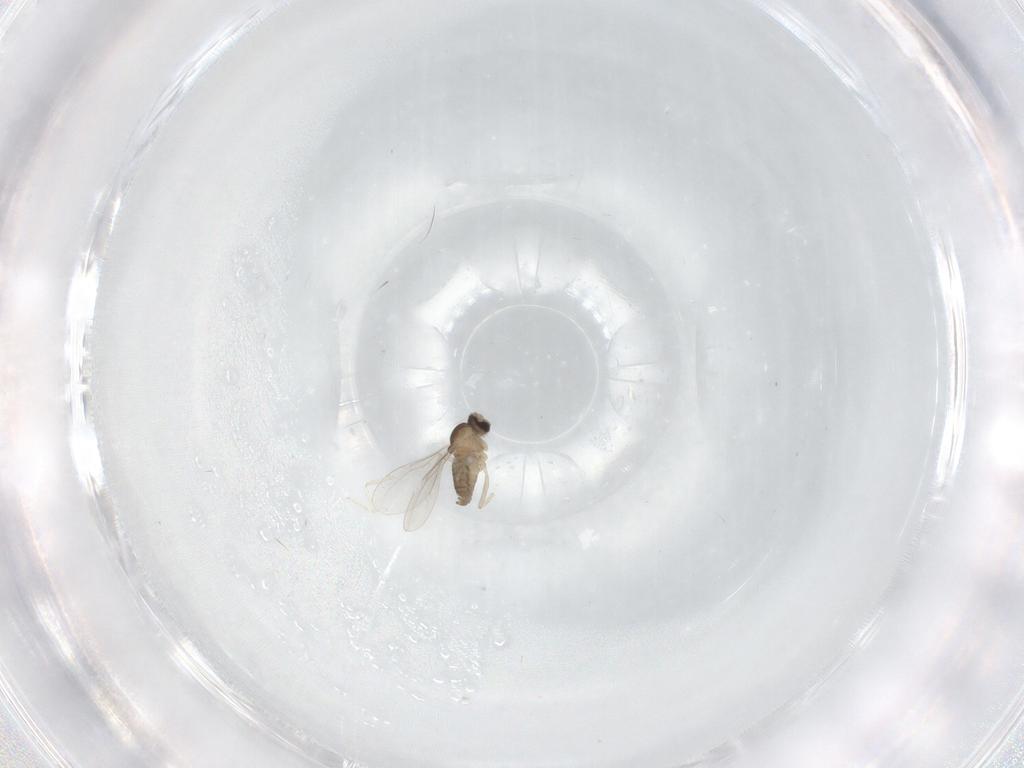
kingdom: Animalia
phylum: Arthropoda
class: Insecta
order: Diptera
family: Cecidomyiidae
